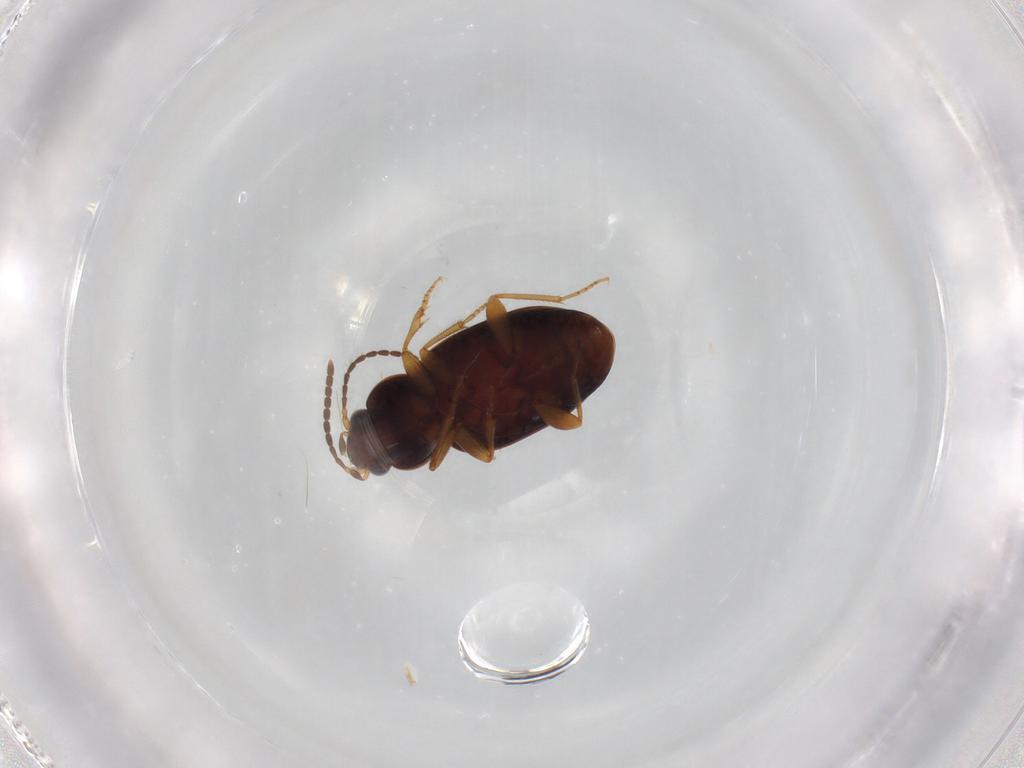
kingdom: Animalia
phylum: Arthropoda
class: Insecta
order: Coleoptera
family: Carabidae
